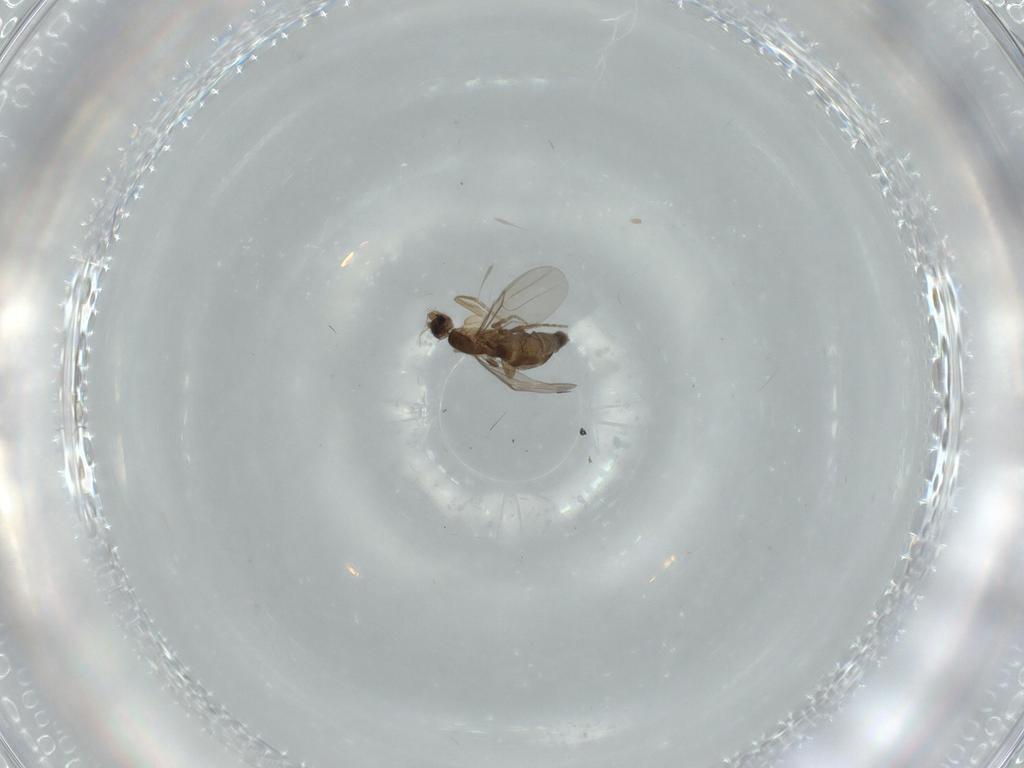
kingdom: Animalia
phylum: Arthropoda
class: Insecta
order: Diptera
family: Phoridae
